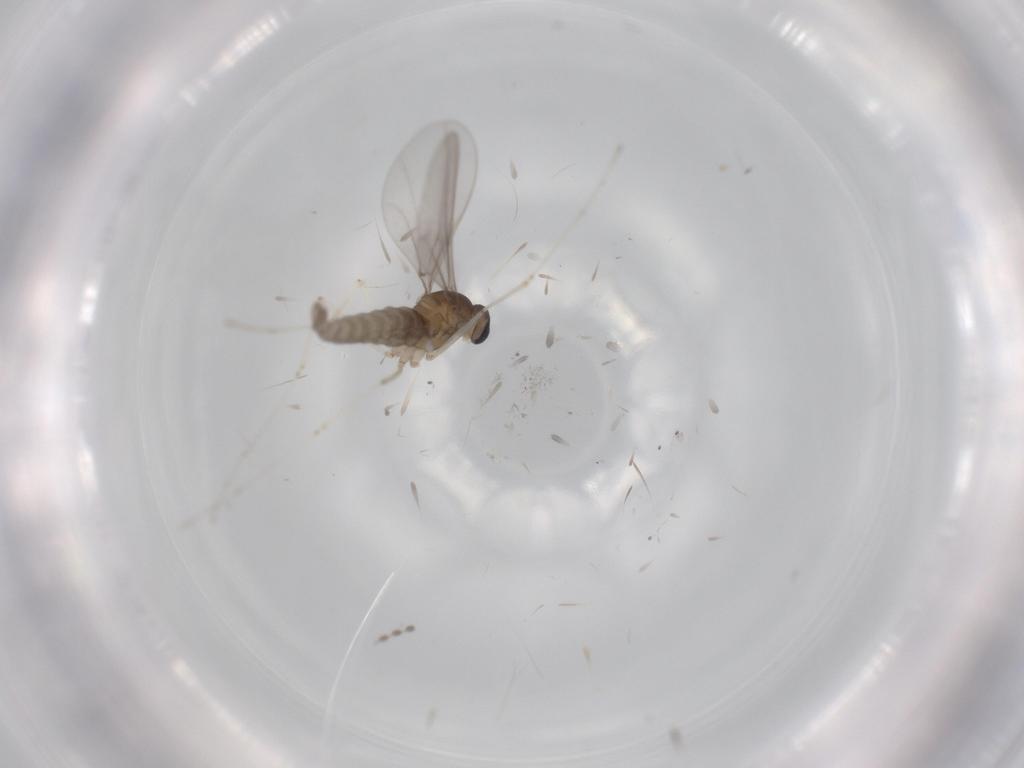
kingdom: Animalia
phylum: Arthropoda
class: Insecta
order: Diptera
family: Cecidomyiidae
